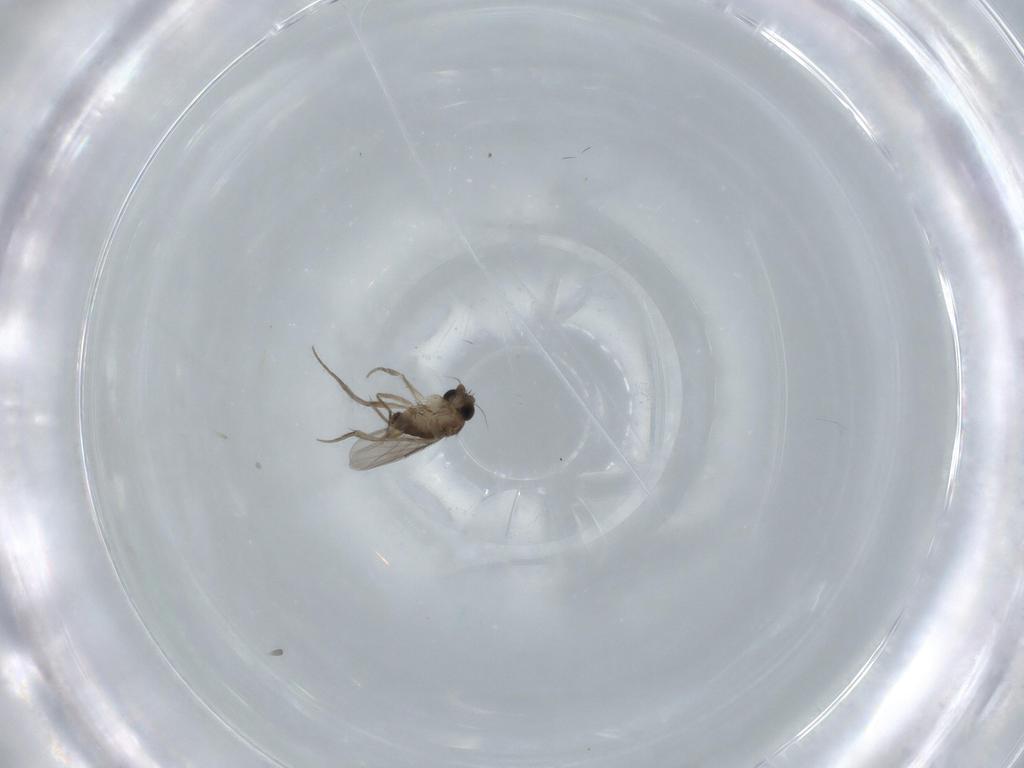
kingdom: Animalia
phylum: Arthropoda
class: Insecta
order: Diptera
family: Phoridae
